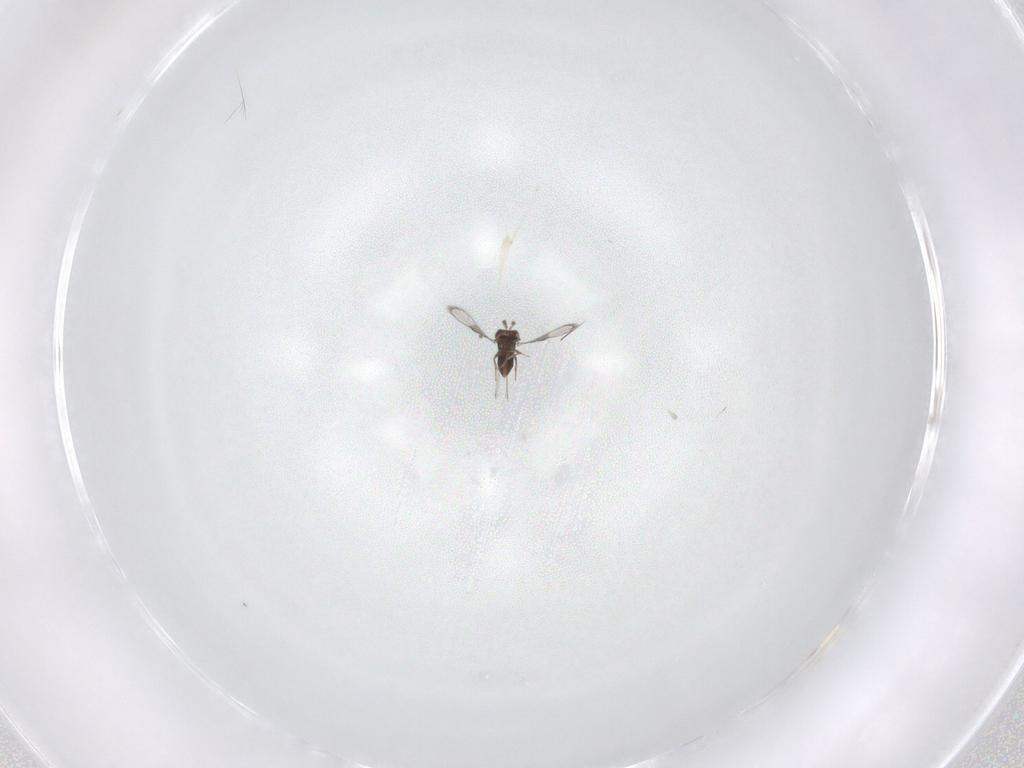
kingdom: Animalia
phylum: Arthropoda
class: Insecta
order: Hymenoptera
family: Trichogrammatidae
